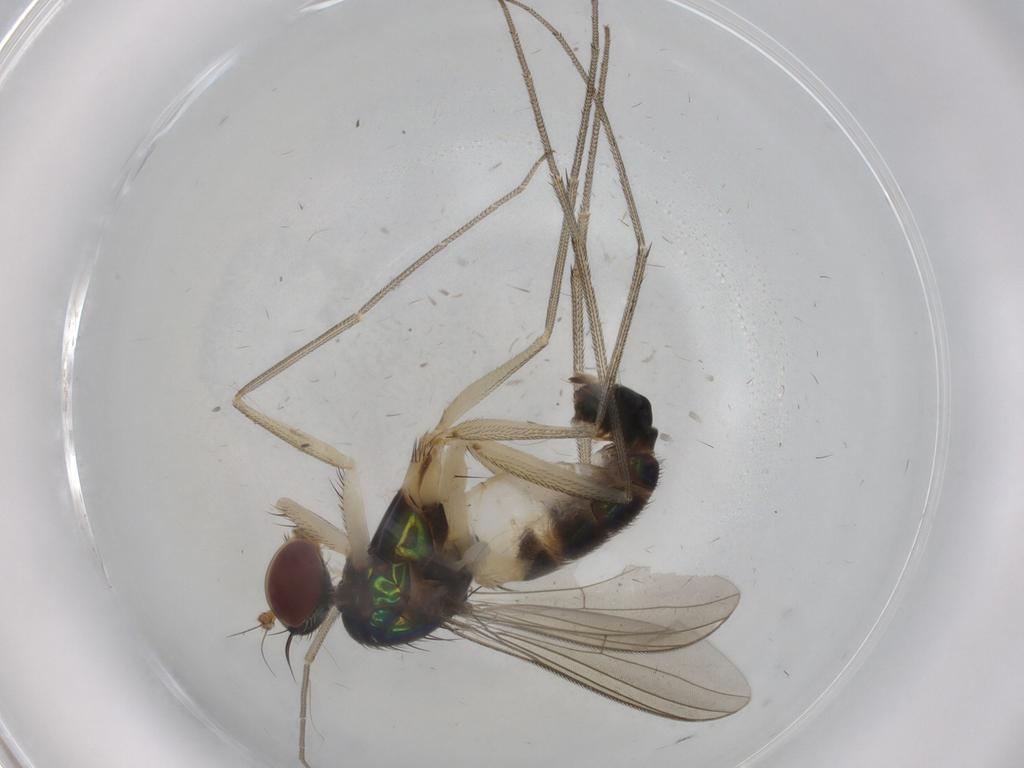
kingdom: Animalia
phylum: Arthropoda
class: Insecta
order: Diptera
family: Dolichopodidae
